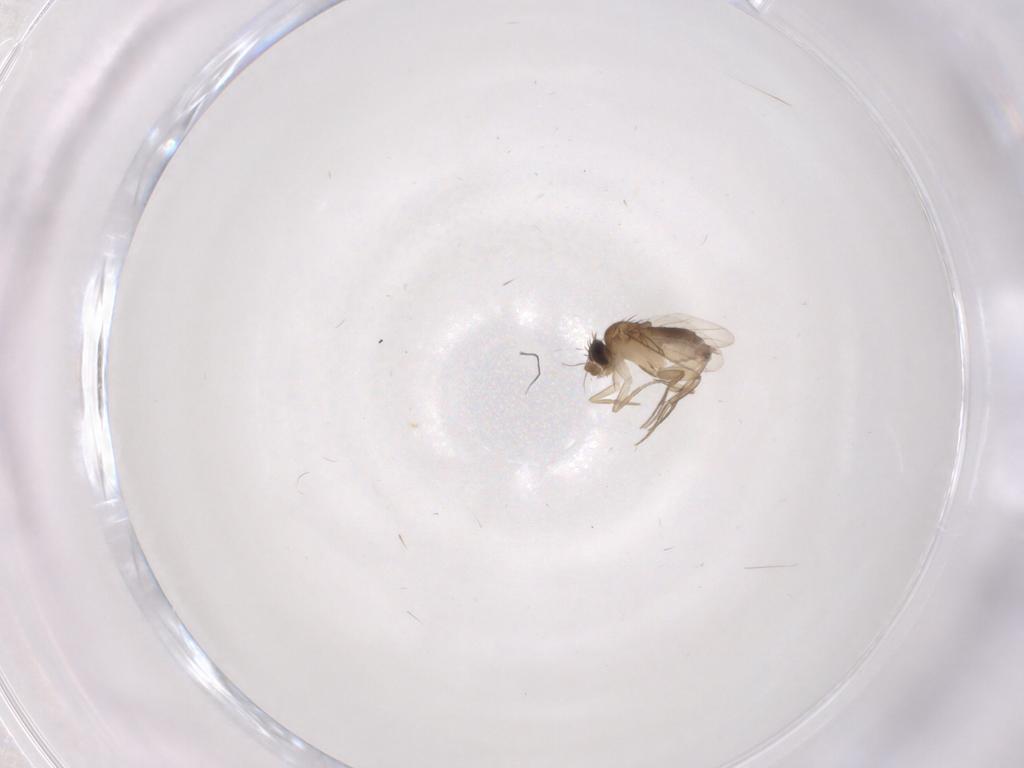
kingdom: Animalia
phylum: Arthropoda
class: Insecta
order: Diptera
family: Phoridae
